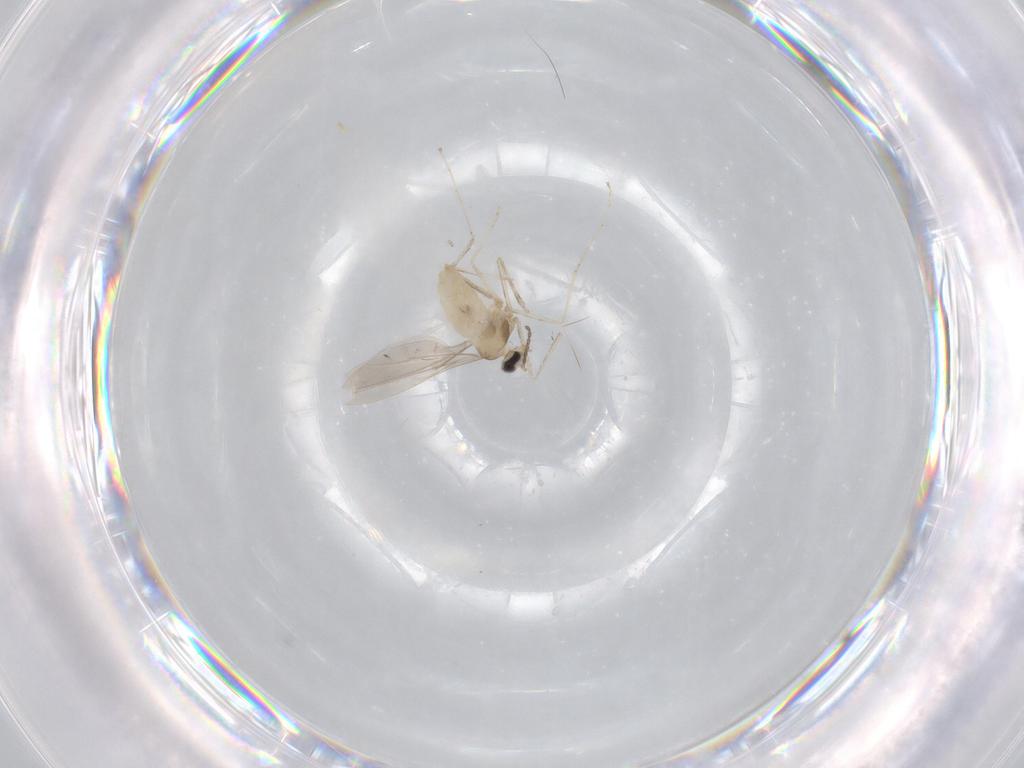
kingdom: Animalia
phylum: Arthropoda
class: Insecta
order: Diptera
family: Cecidomyiidae
